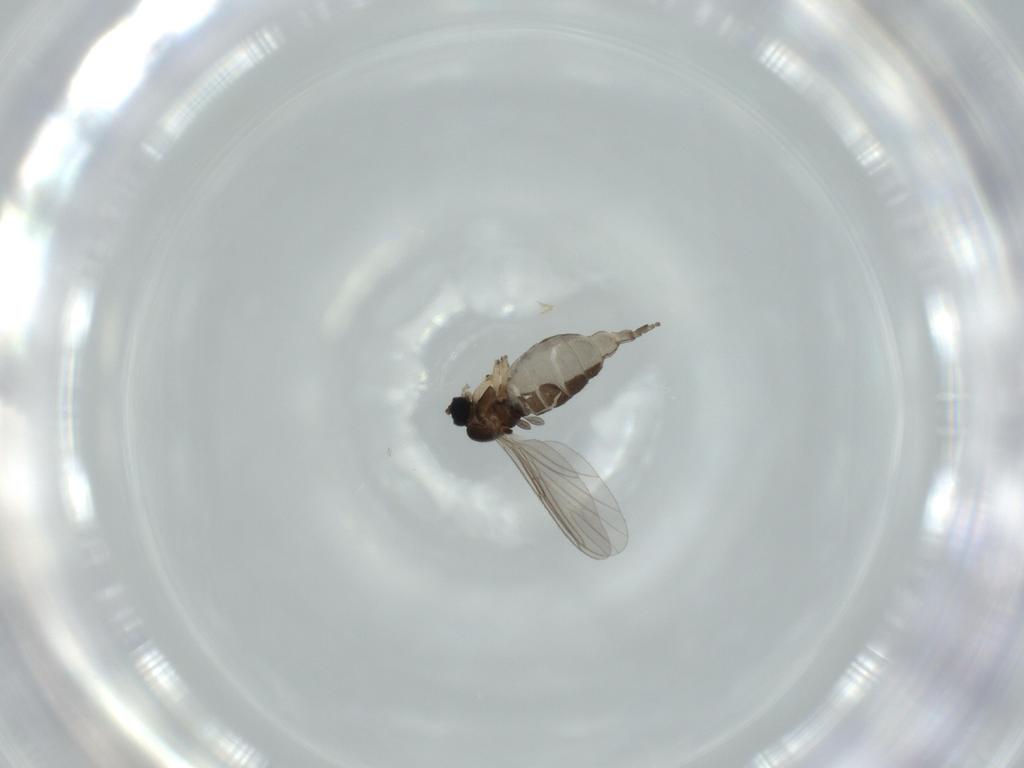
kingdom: Animalia
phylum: Arthropoda
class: Insecta
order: Diptera
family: Sciaridae
